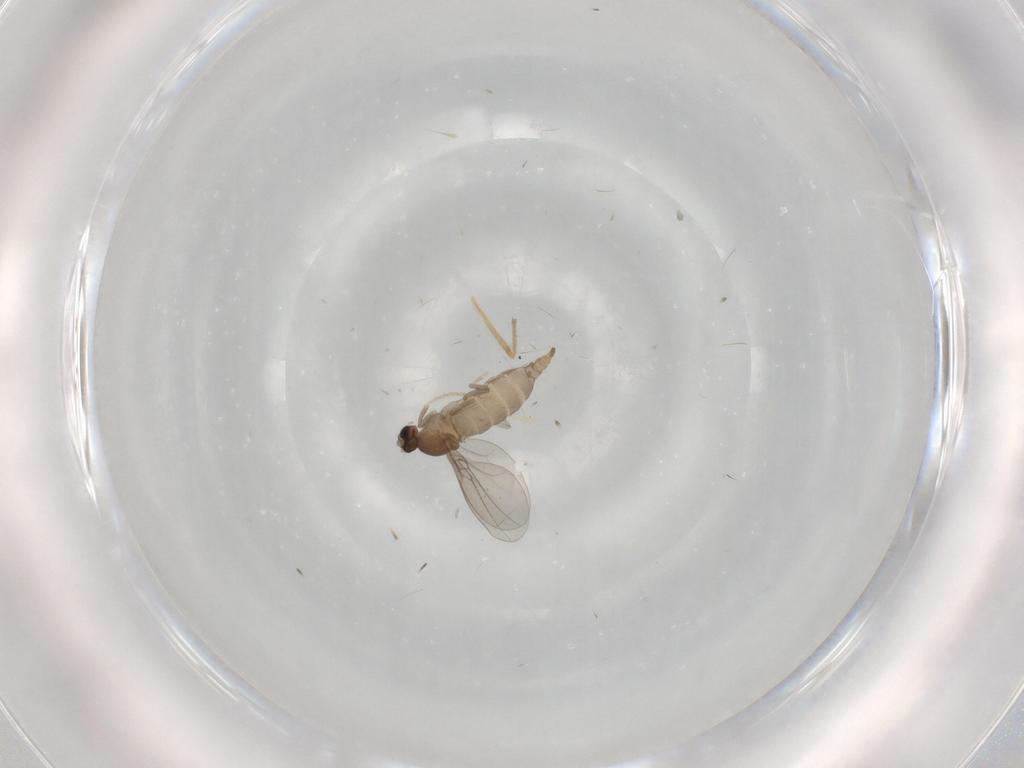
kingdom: Animalia
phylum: Arthropoda
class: Insecta
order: Diptera
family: Cecidomyiidae
